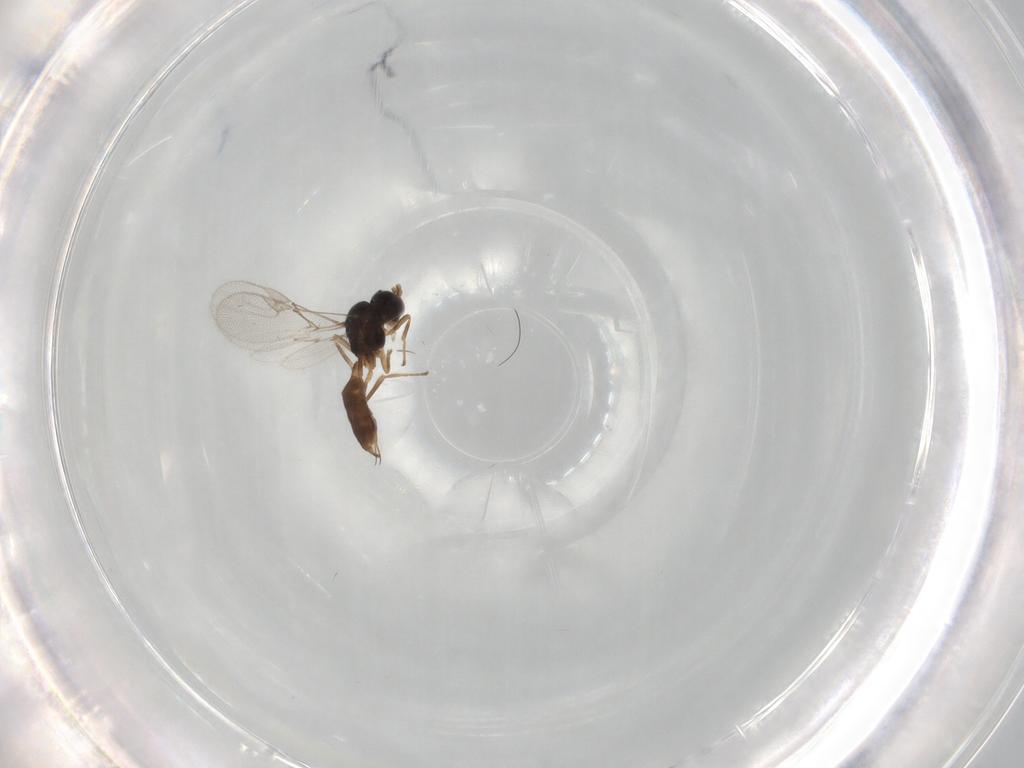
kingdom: Animalia
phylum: Arthropoda
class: Insecta
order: Hymenoptera
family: Braconidae
